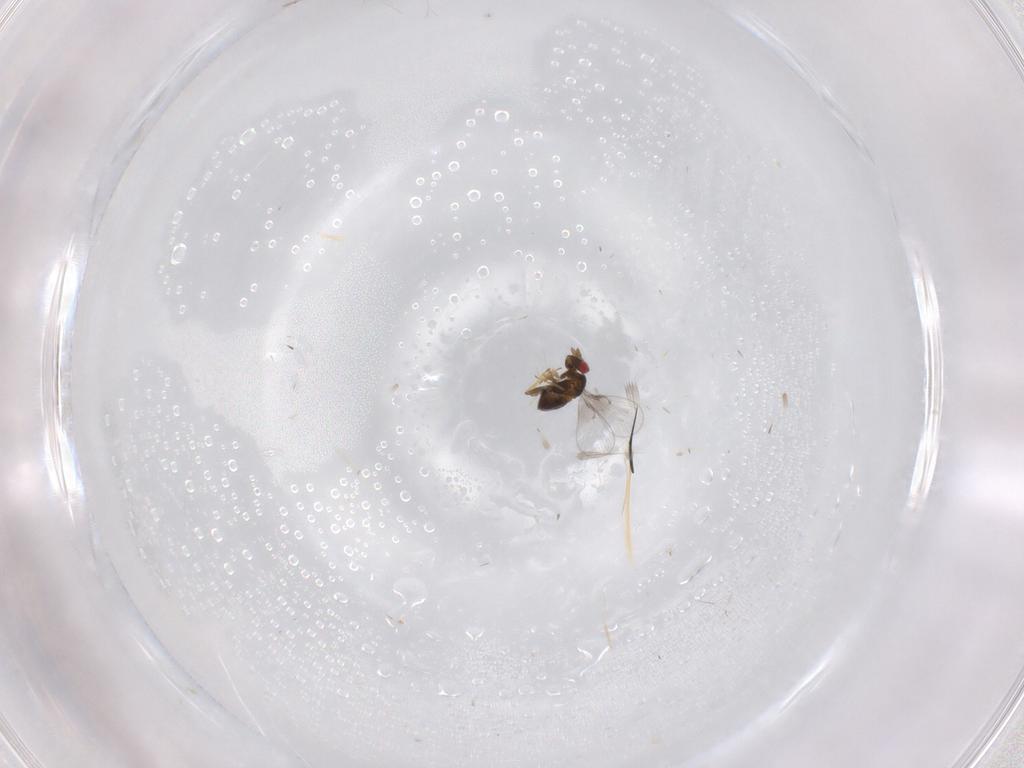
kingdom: Animalia
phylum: Arthropoda
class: Insecta
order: Hymenoptera
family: Trichogrammatidae
